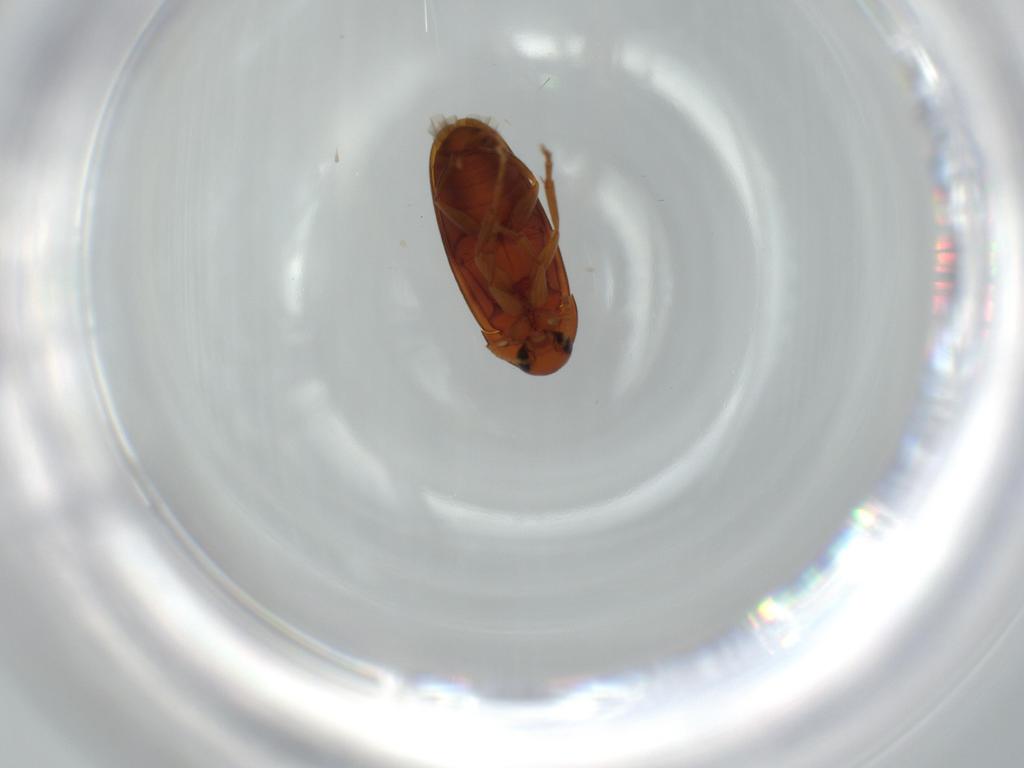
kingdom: Animalia
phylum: Arthropoda
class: Insecta
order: Coleoptera
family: Scraptiidae
